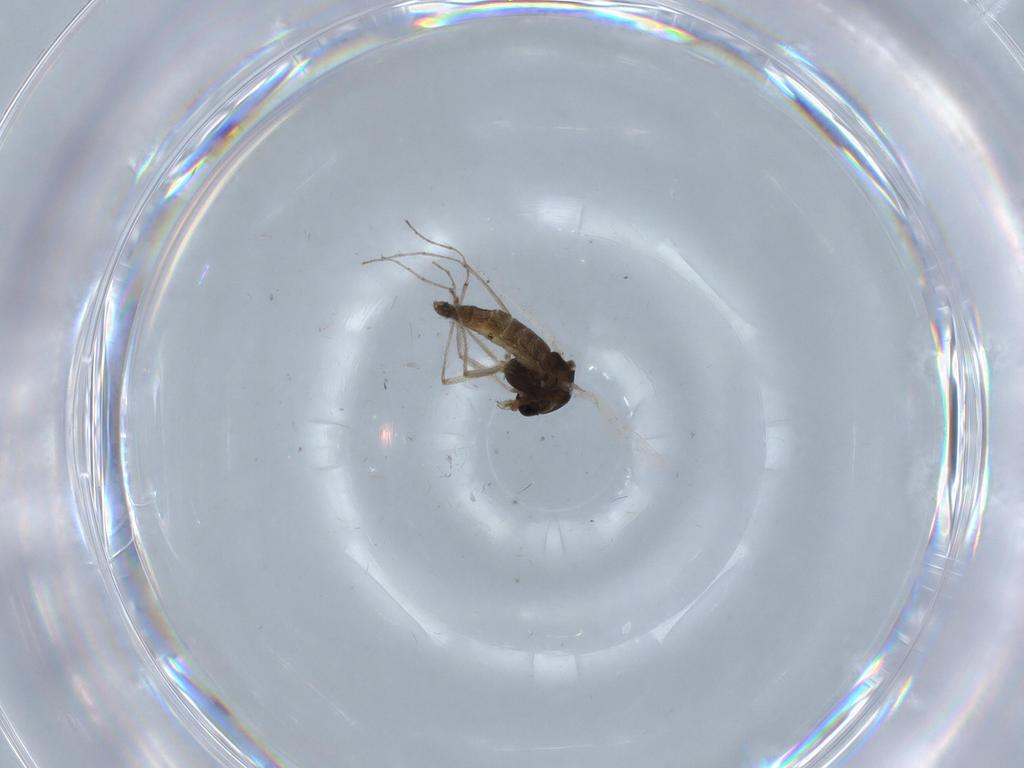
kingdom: Animalia
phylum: Arthropoda
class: Insecta
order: Diptera
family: Chironomidae
